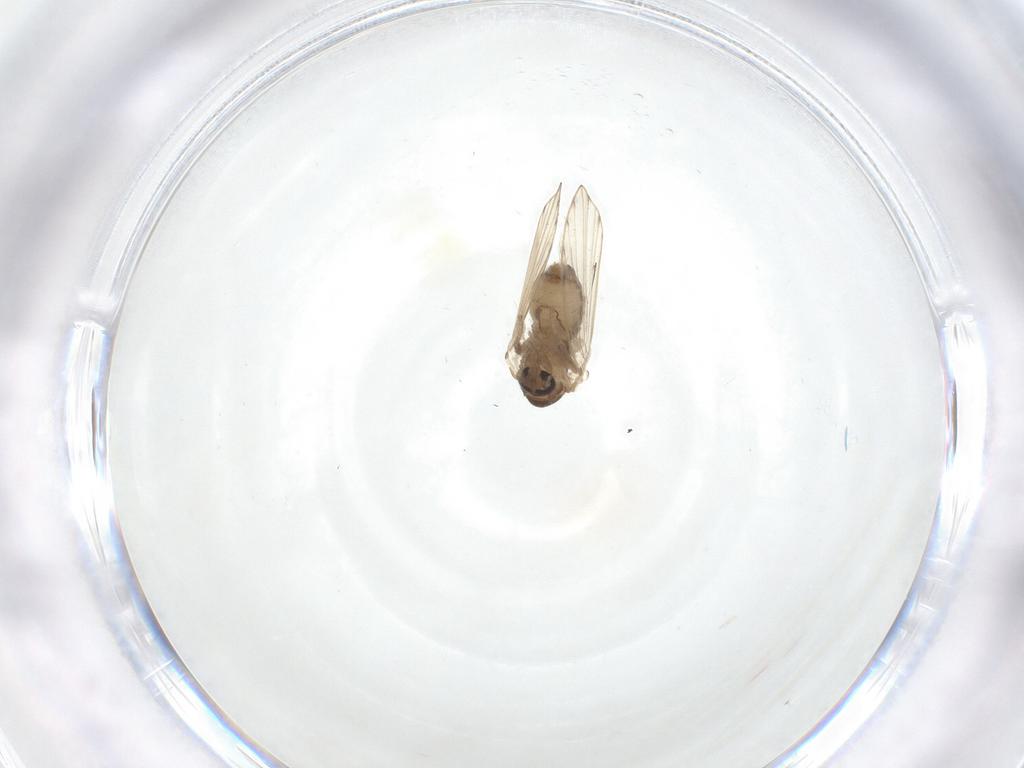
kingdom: Animalia
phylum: Arthropoda
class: Insecta
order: Diptera
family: Psychodidae
